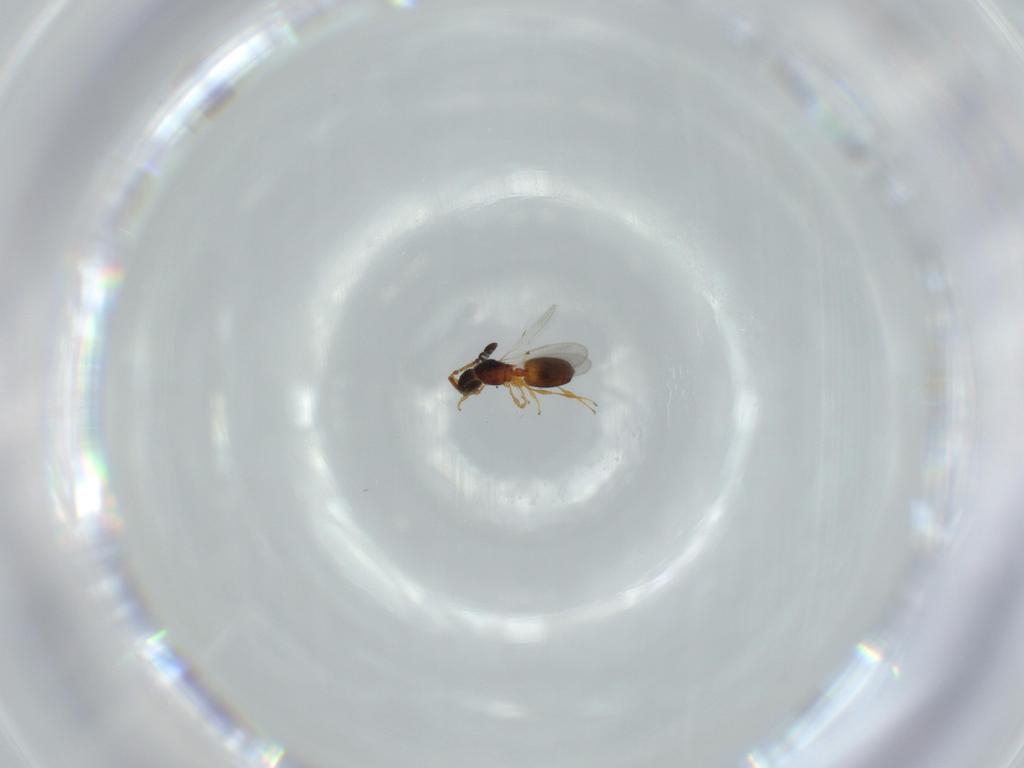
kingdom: Animalia
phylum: Arthropoda
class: Insecta
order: Hymenoptera
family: Diapriidae
